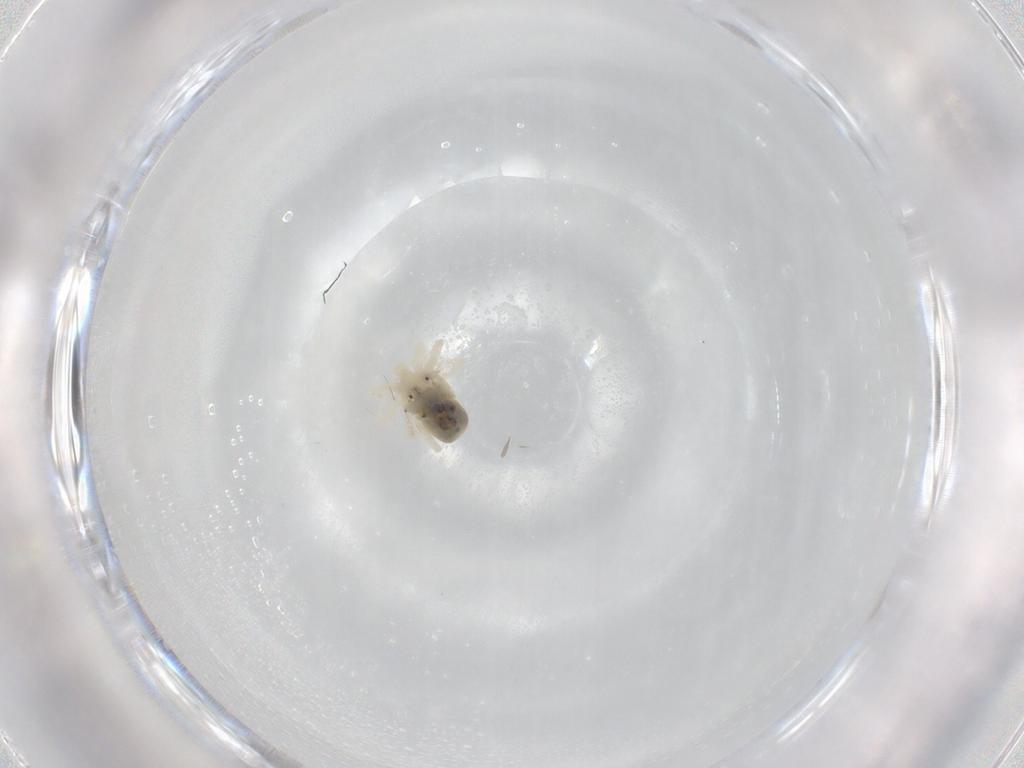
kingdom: Animalia
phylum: Arthropoda
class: Arachnida
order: Trombidiformes
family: Anystidae
